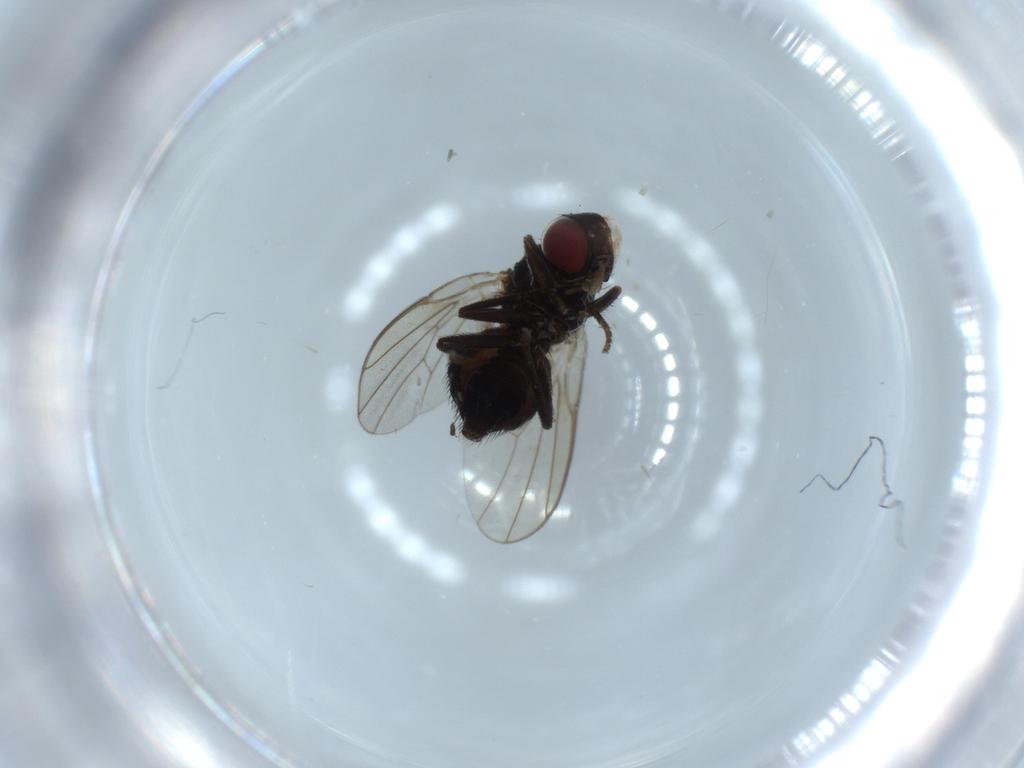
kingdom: Animalia
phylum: Arthropoda
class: Insecta
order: Diptera
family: Agromyzidae
